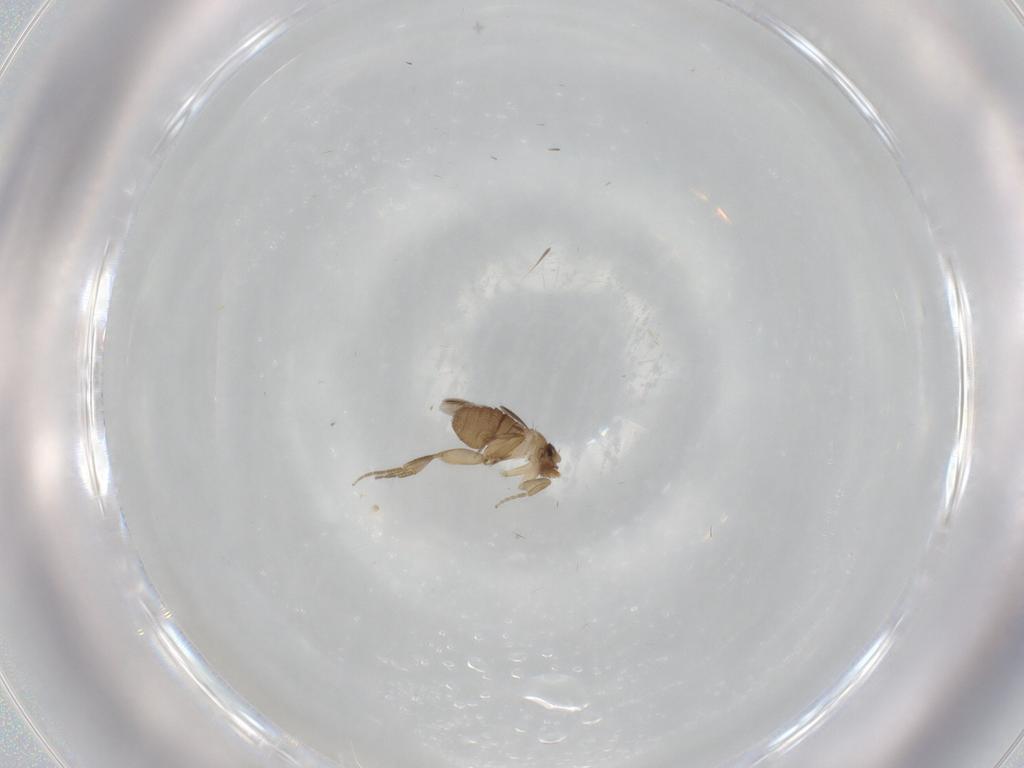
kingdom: Animalia
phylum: Arthropoda
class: Insecta
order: Diptera
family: Phoridae
